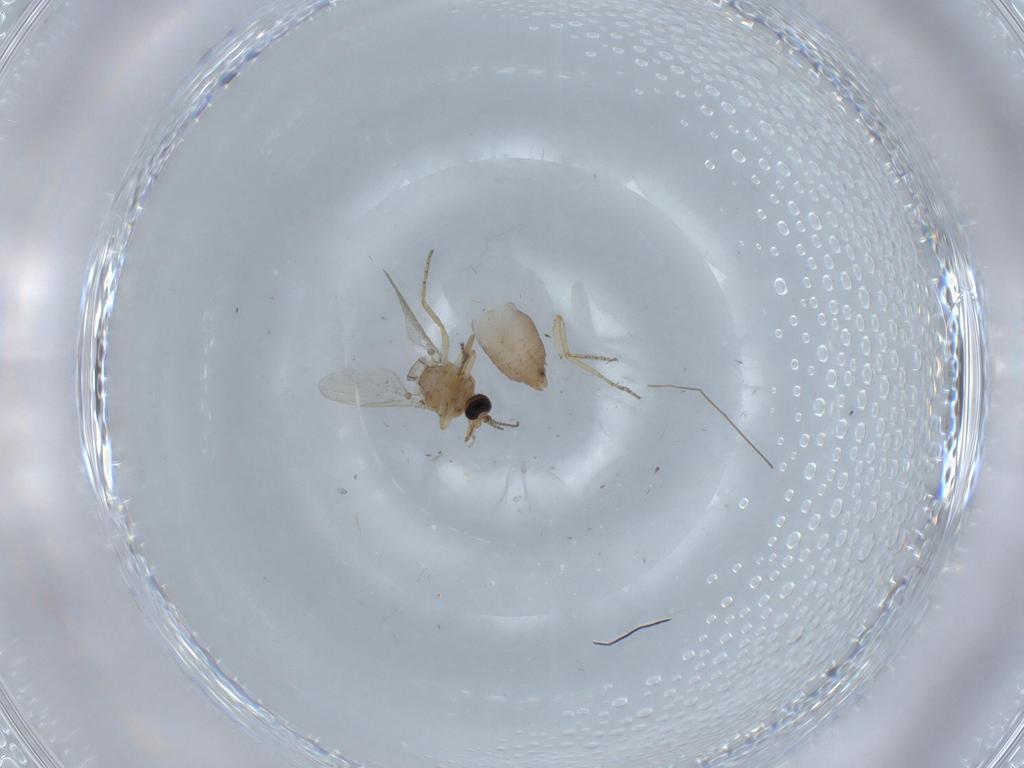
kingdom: Animalia
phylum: Arthropoda
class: Insecta
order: Diptera
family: Ceratopogonidae
